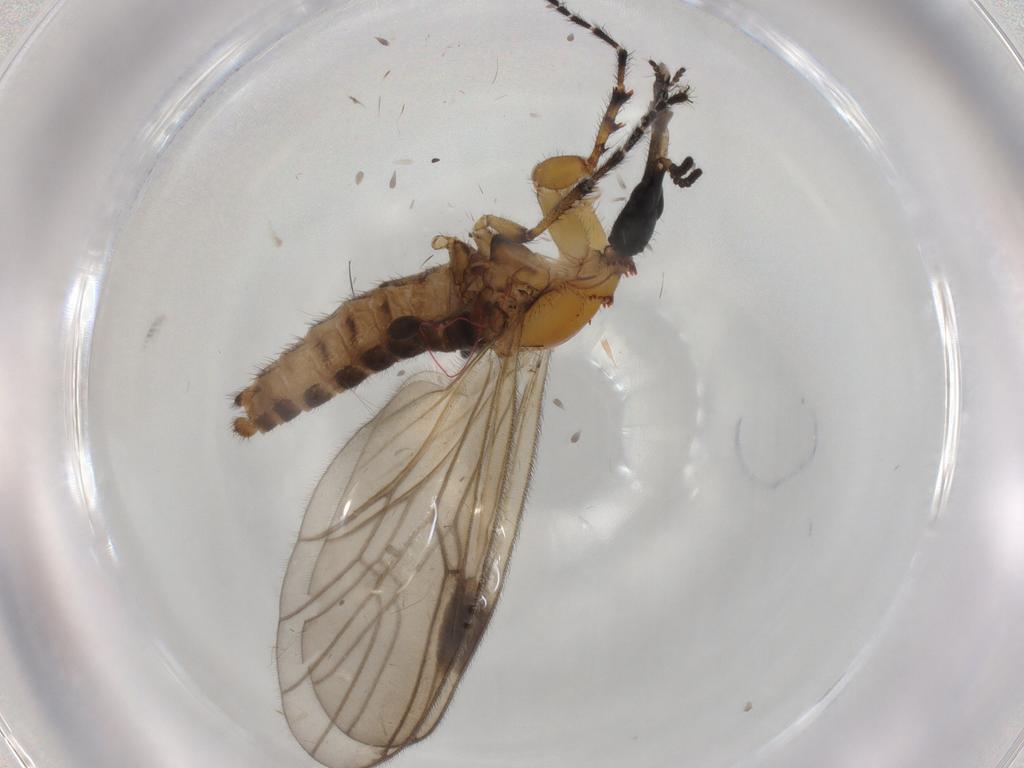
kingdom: Animalia
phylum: Arthropoda
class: Insecta
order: Diptera
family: Bibionidae
